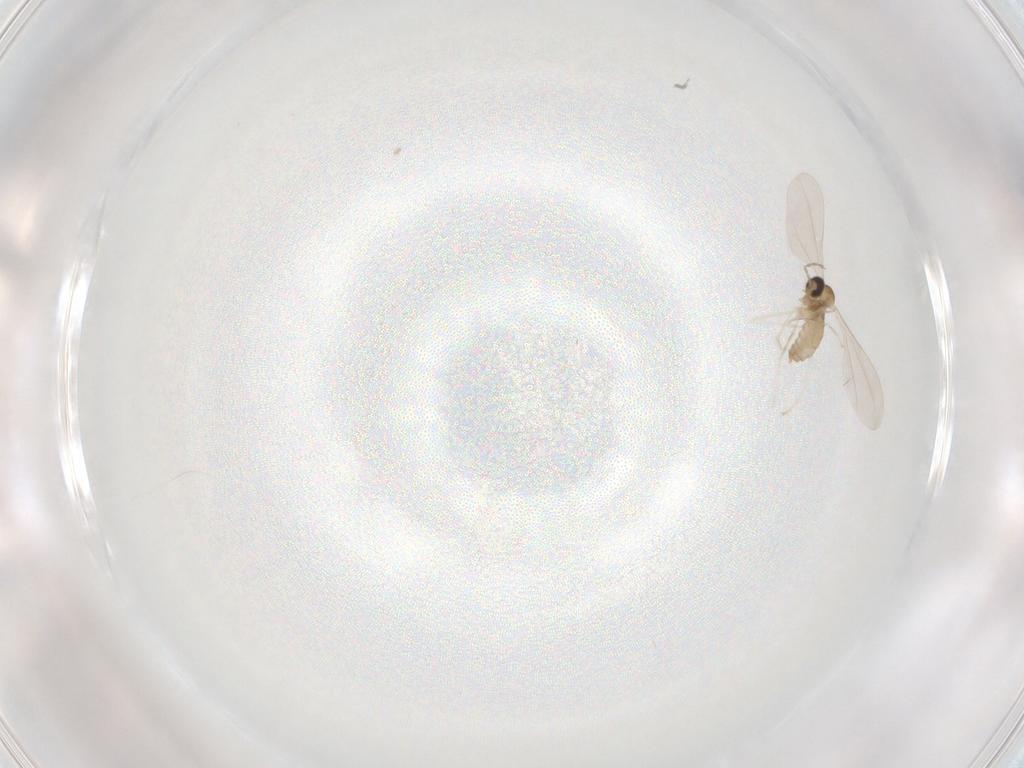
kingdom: Animalia
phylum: Arthropoda
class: Insecta
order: Diptera
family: Cecidomyiidae
